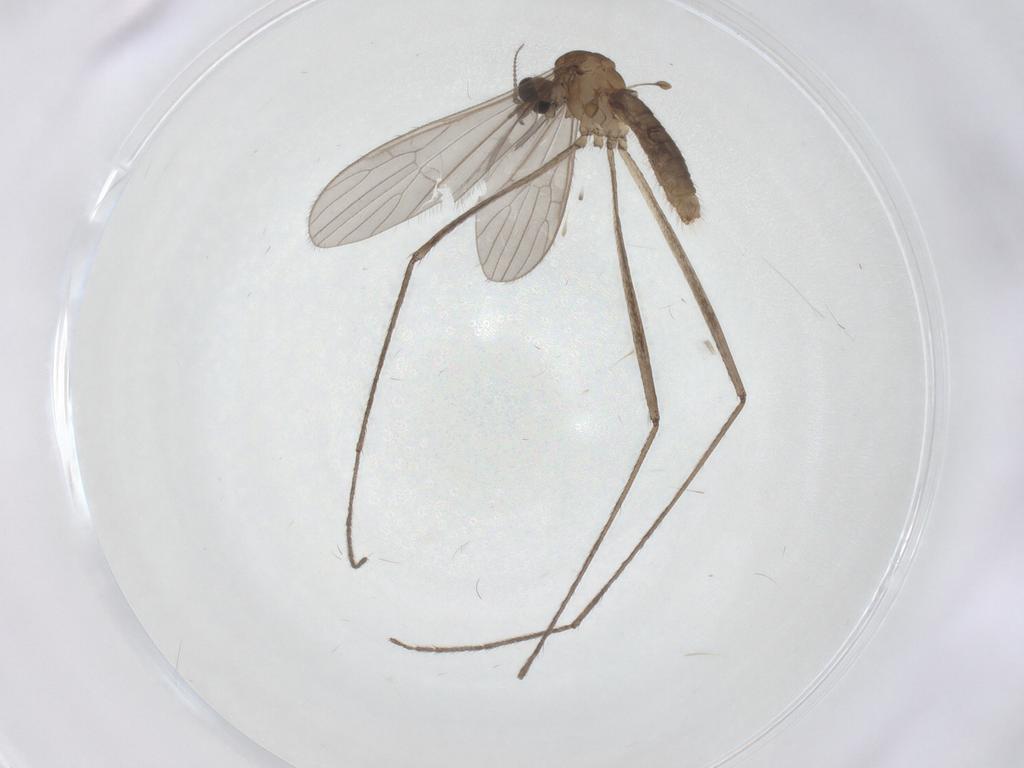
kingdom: Animalia
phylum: Arthropoda
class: Insecta
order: Diptera
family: Limoniidae
